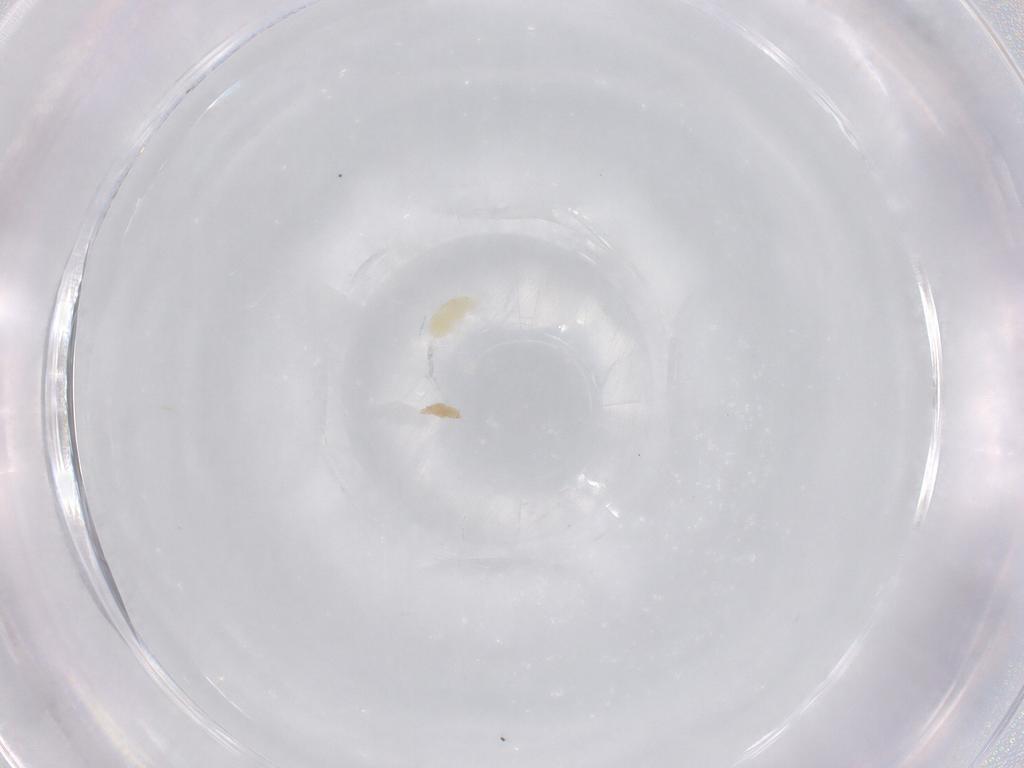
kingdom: Animalia
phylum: Arthropoda
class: Arachnida
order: Trombidiformes
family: Eupodidae
